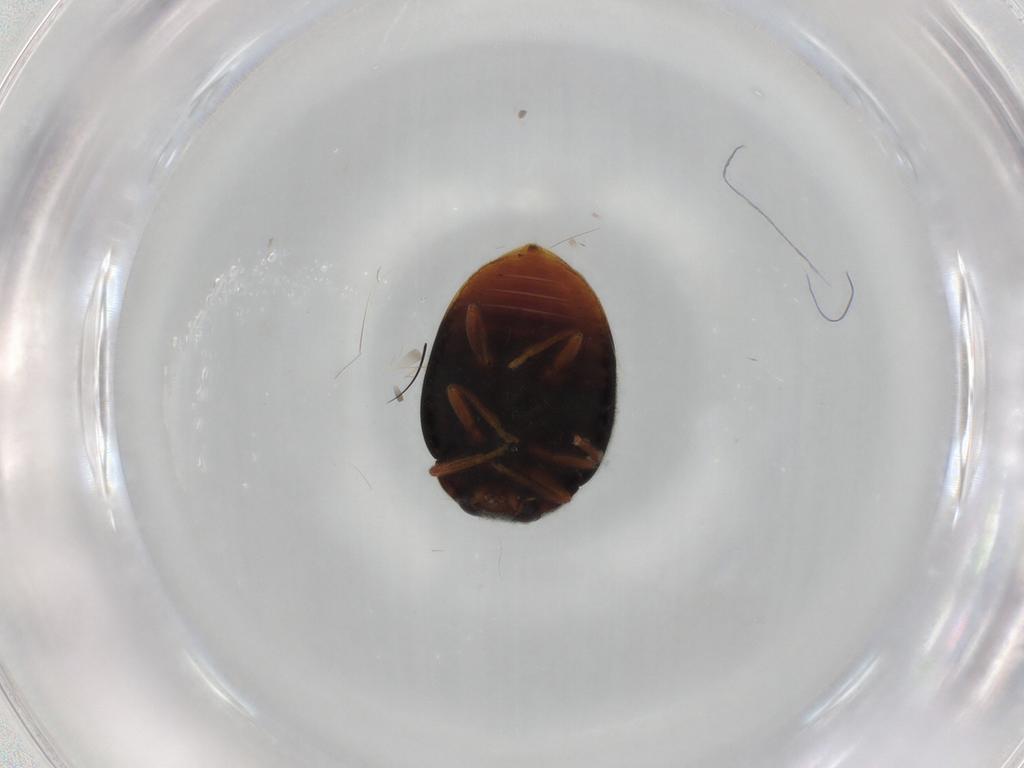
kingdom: Animalia
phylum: Arthropoda
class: Insecta
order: Coleoptera
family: Coccinellidae
